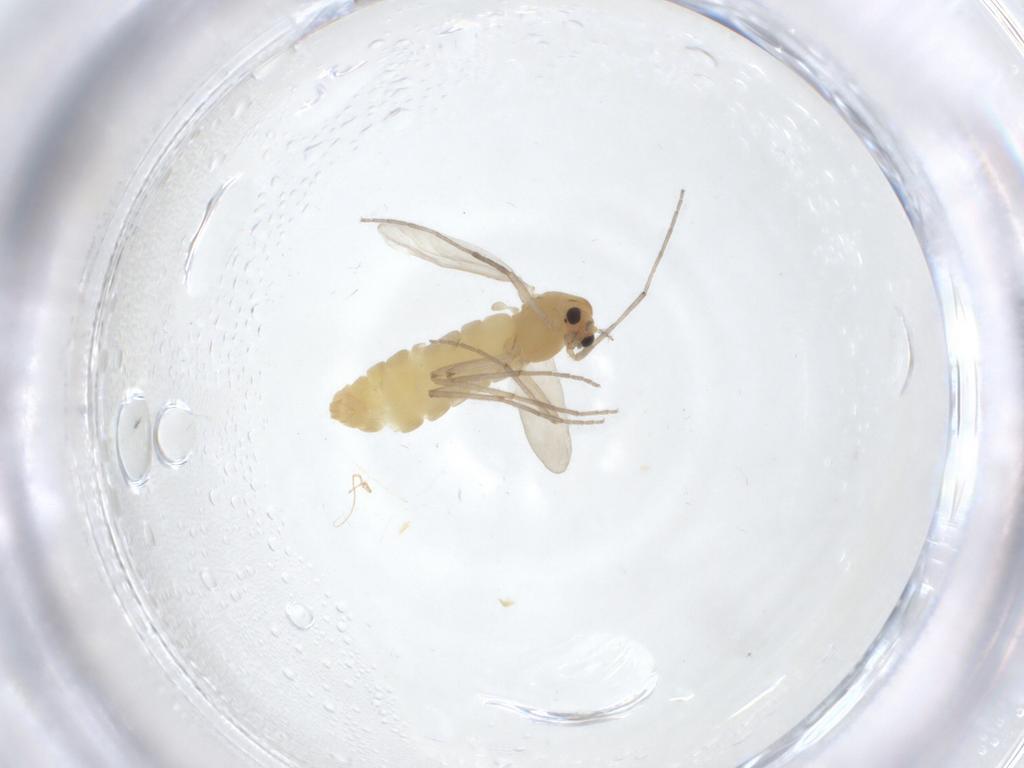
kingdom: Animalia
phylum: Arthropoda
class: Insecta
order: Diptera
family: Chironomidae
